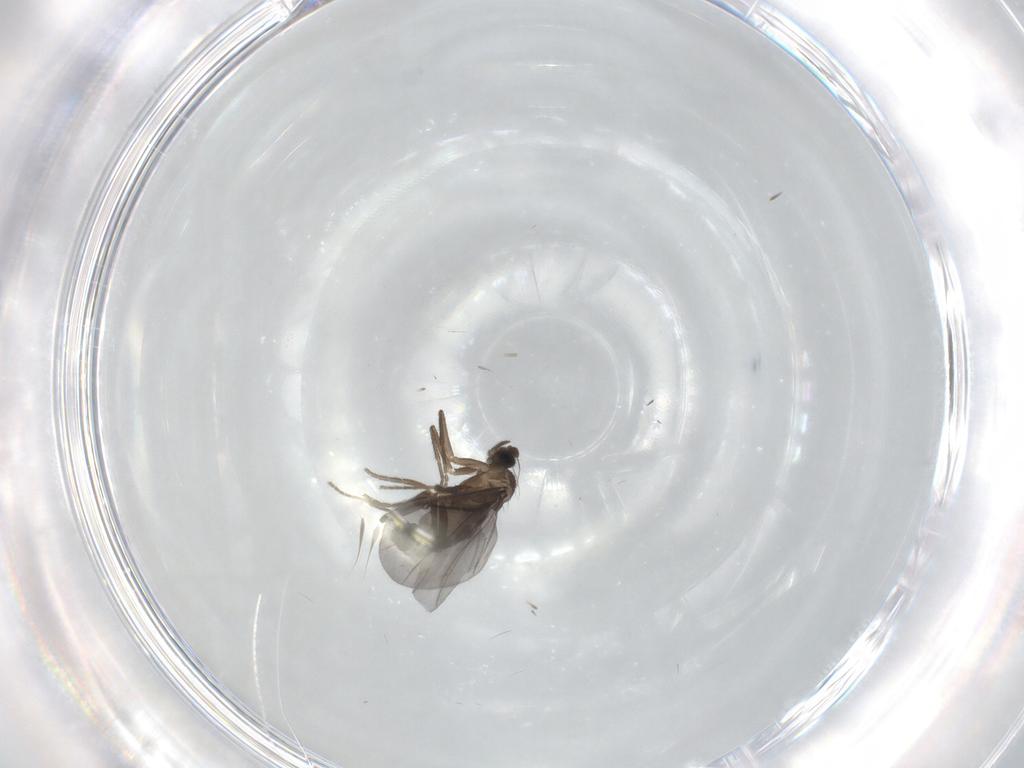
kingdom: Animalia
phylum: Arthropoda
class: Insecta
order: Diptera
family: Phoridae
